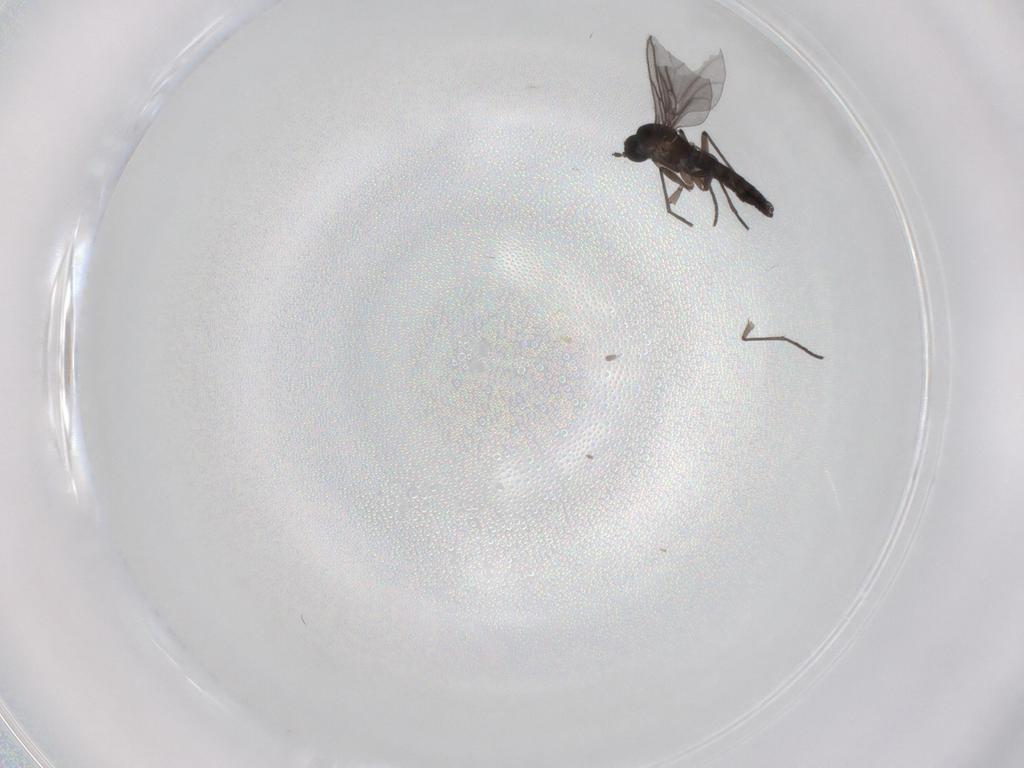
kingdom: Animalia
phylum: Arthropoda
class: Insecta
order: Diptera
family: Sciaridae
